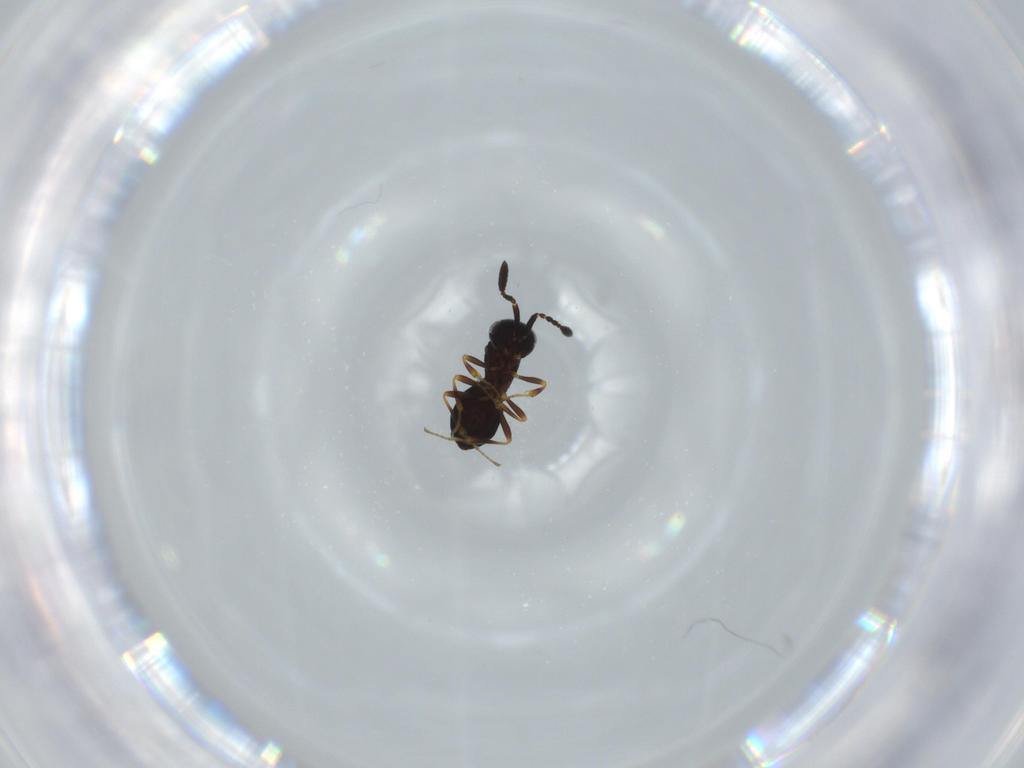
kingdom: Animalia
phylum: Arthropoda
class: Insecta
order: Hymenoptera
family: Scelionidae
